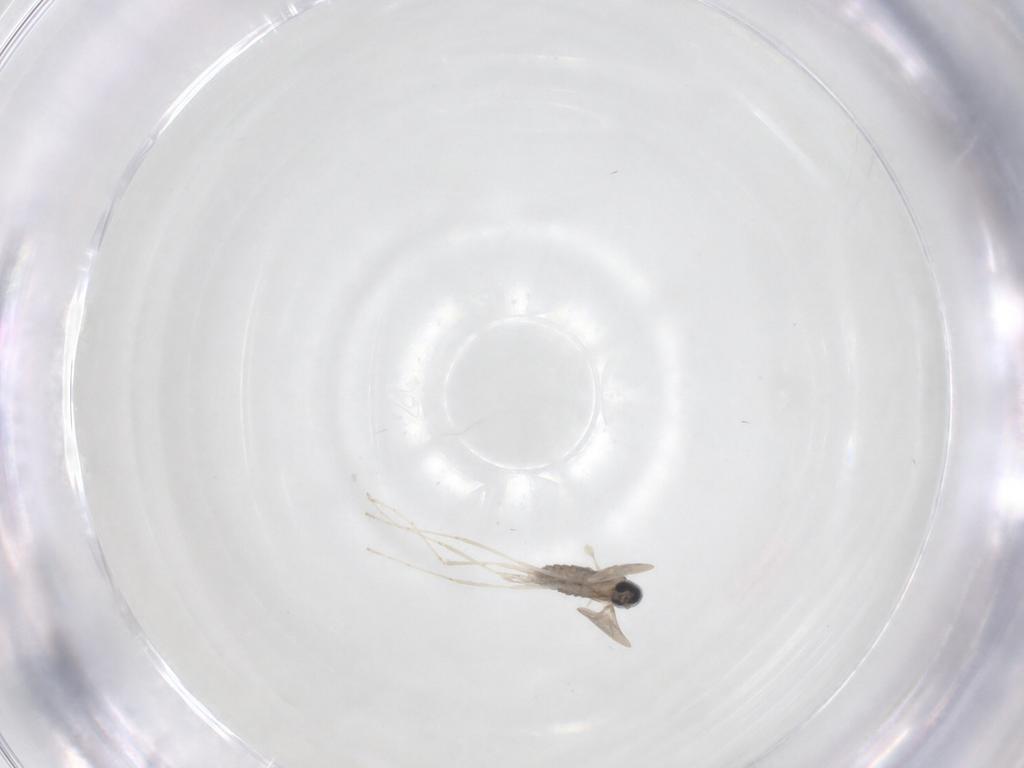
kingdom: Animalia
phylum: Arthropoda
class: Insecta
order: Diptera
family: Cecidomyiidae
